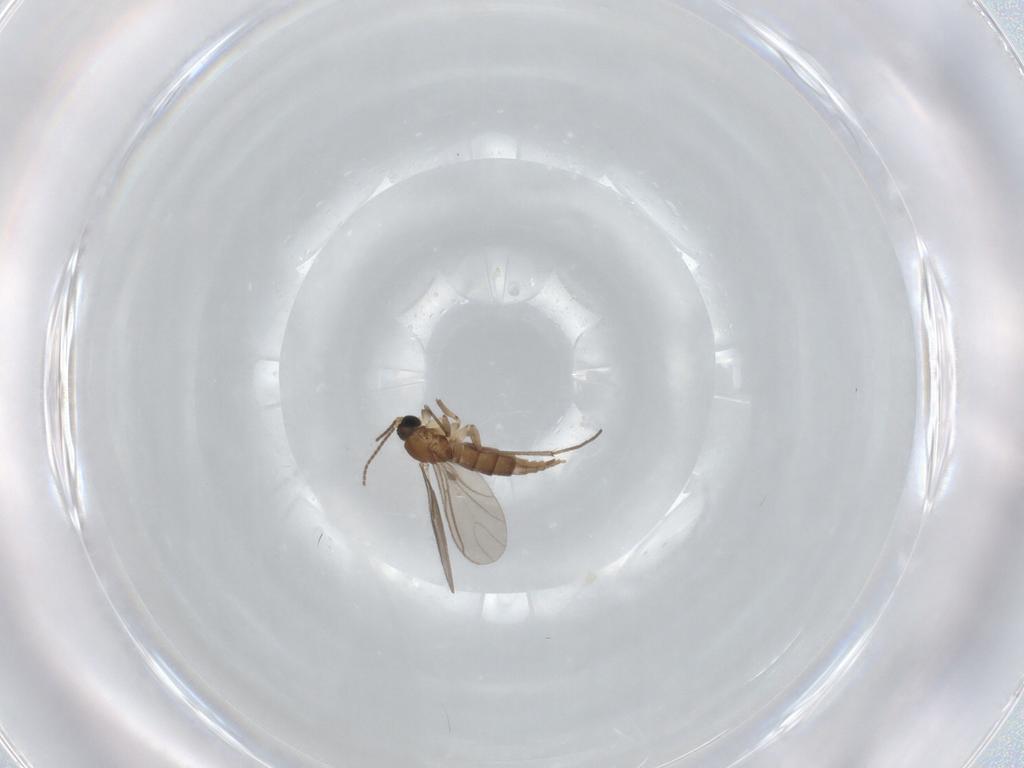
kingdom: Animalia
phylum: Arthropoda
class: Insecta
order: Diptera
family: Sciaridae
